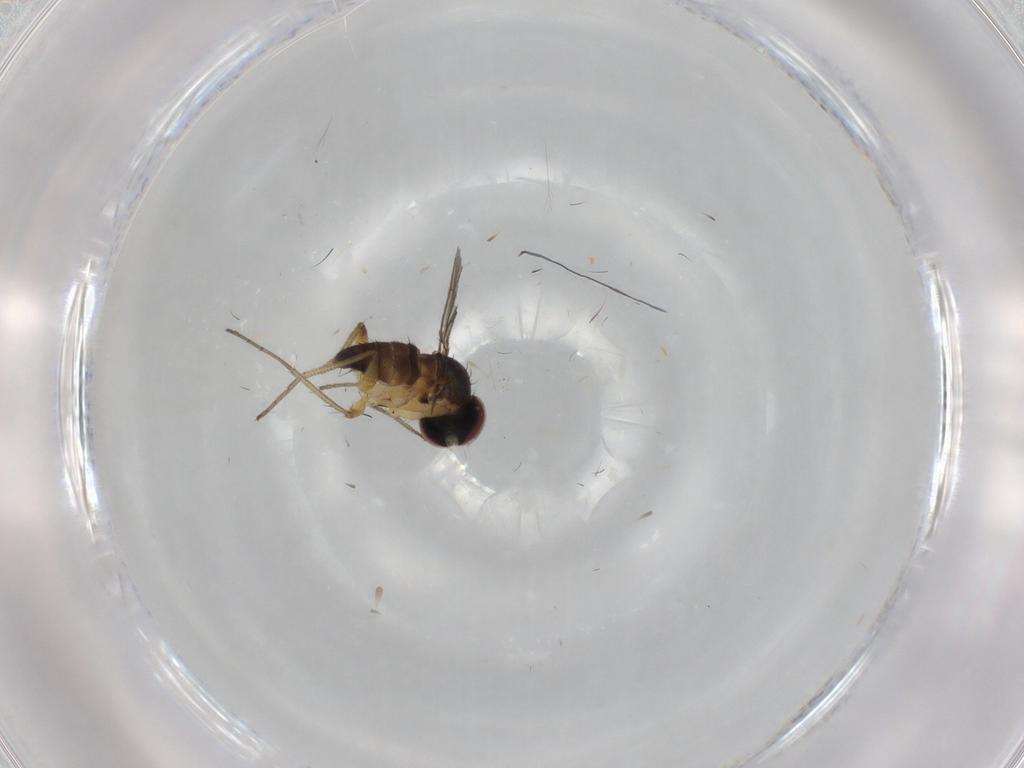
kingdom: Animalia
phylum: Arthropoda
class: Insecta
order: Diptera
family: Dolichopodidae
